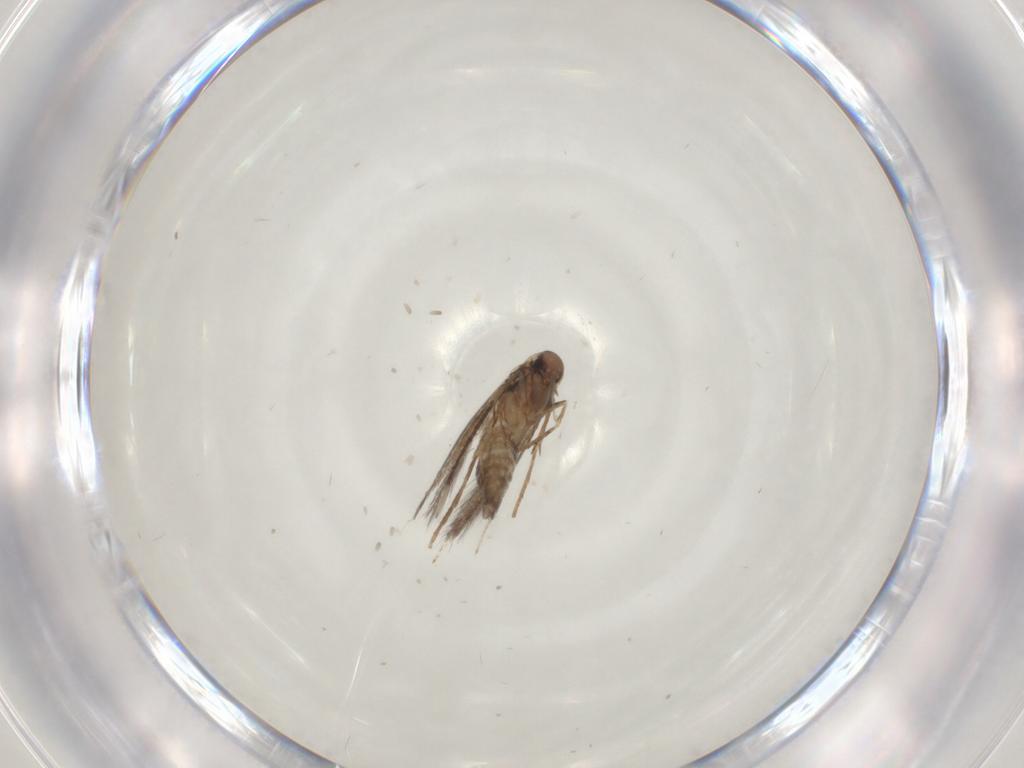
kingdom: Animalia
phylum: Arthropoda
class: Insecta
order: Lepidoptera
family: Gracillariidae
